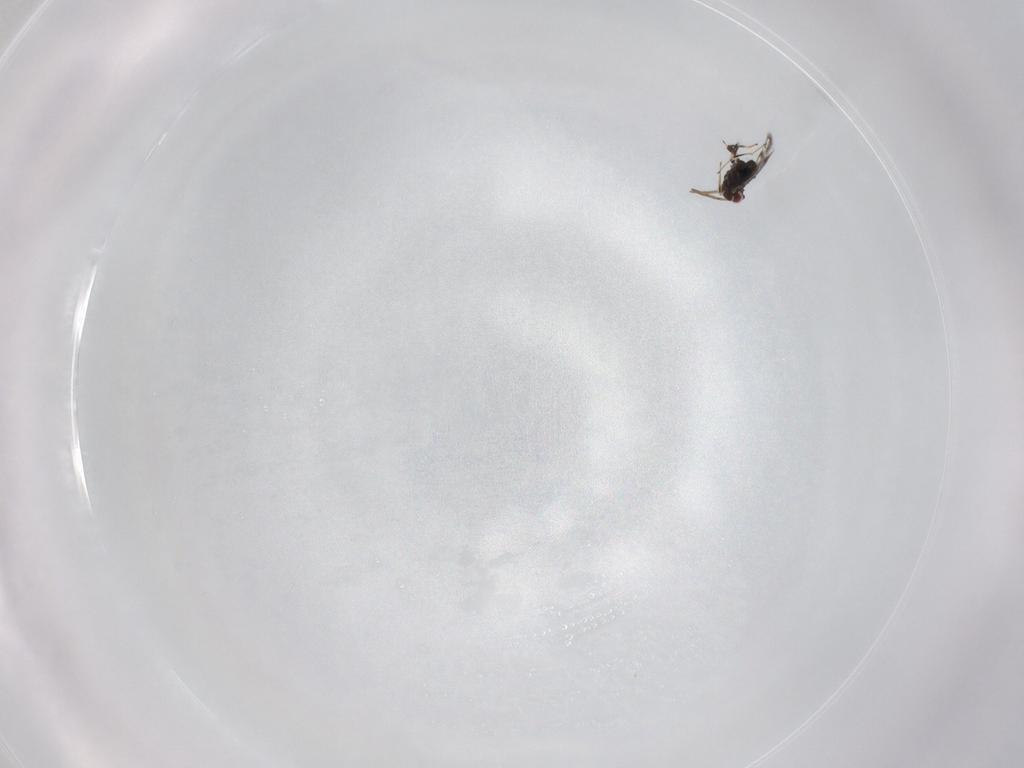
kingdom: Animalia
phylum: Arthropoda
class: Insecta
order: Hymenoptera
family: Azotidae
